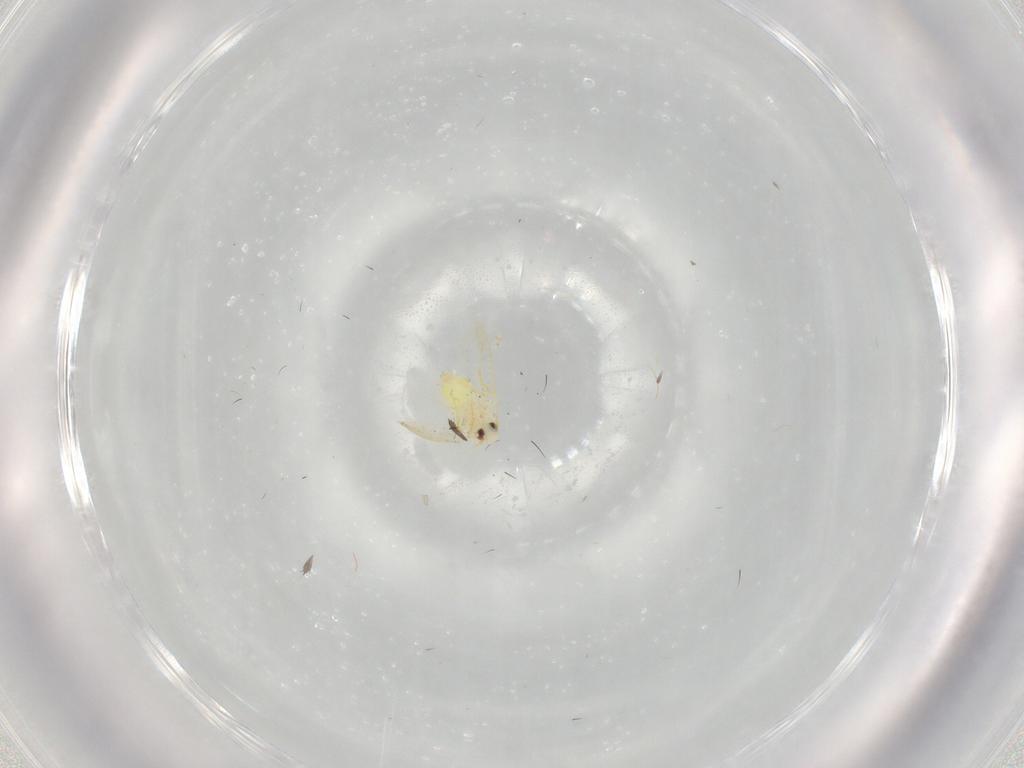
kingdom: Animalia
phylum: Arthropoda
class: Insecta
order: Hemiptera
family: Aleyrodidae
